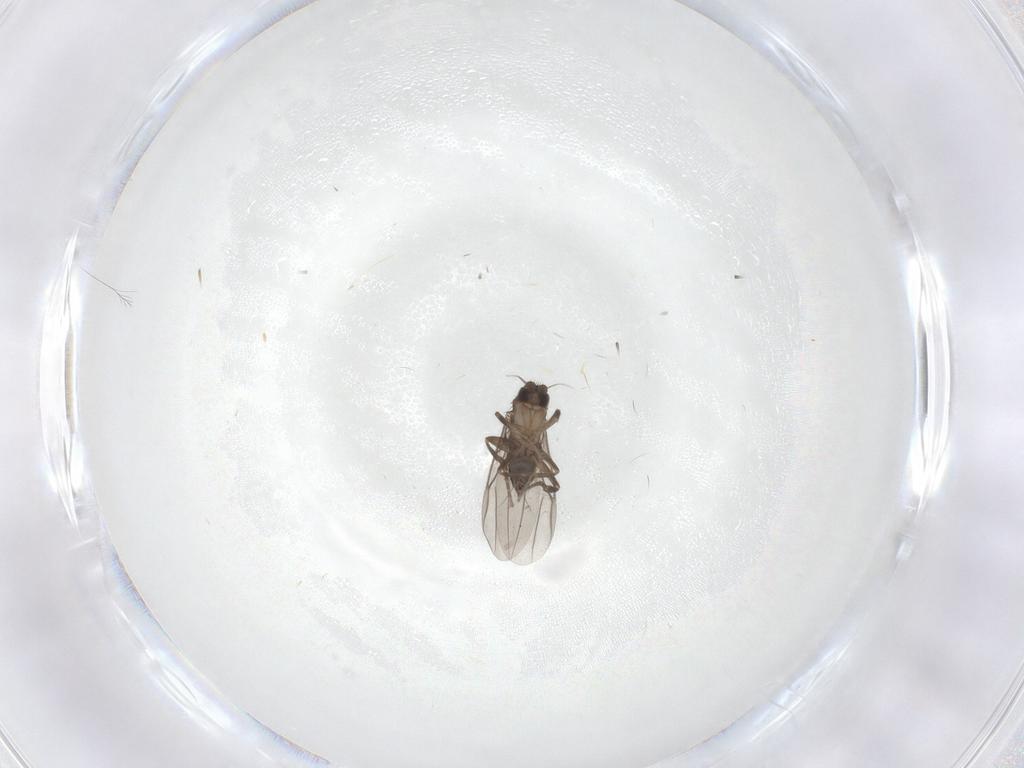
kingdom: Animalia
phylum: Arthropoda
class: Insecta
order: Diptera
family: Phoridae
